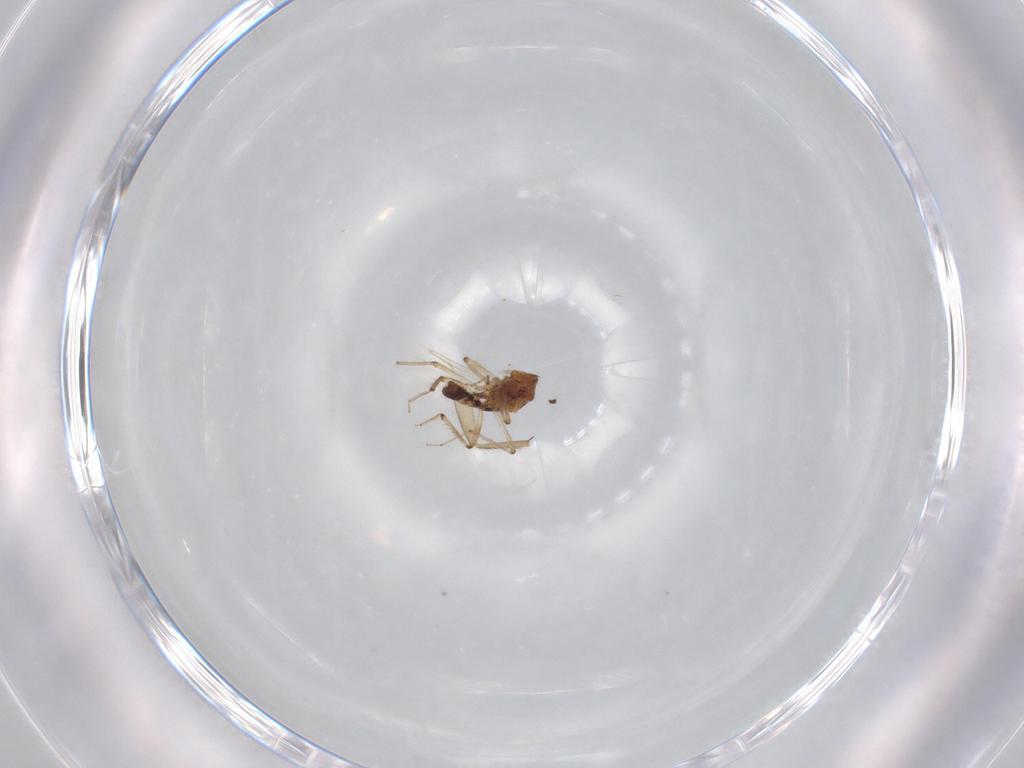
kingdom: Animalia
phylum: Arthropoda
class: Insecta
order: Diptera
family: Ceratopogonidae
